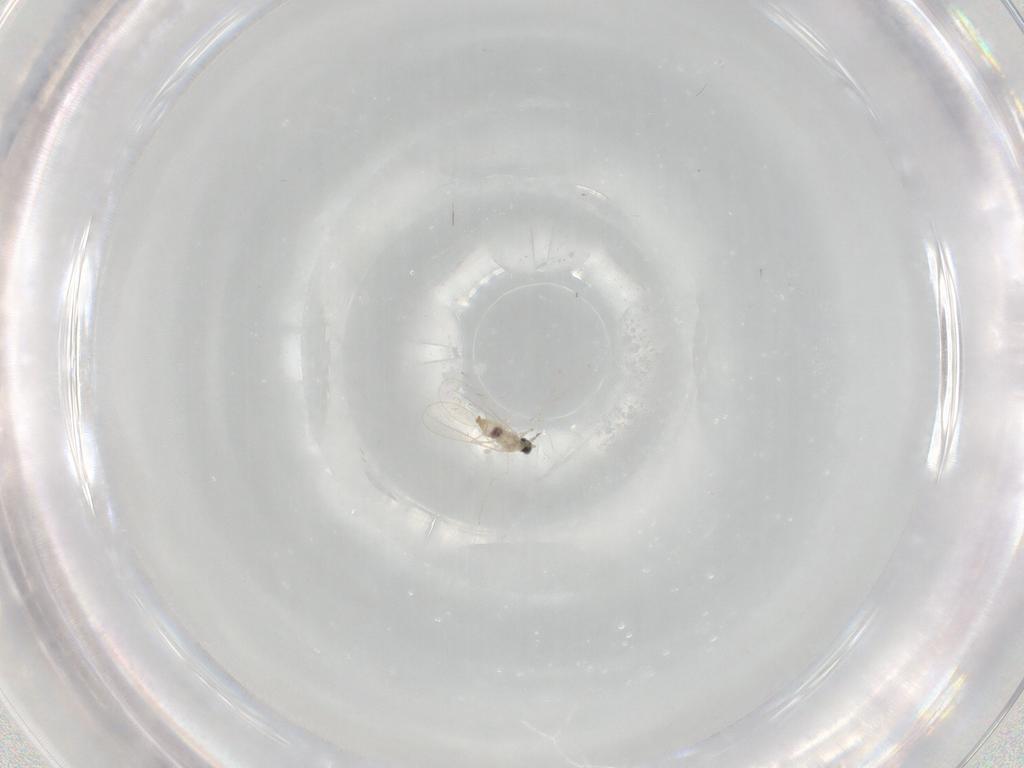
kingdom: Animalia
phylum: Arthropoda
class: Insecta
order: Diptera
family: Cecidomyiidae
